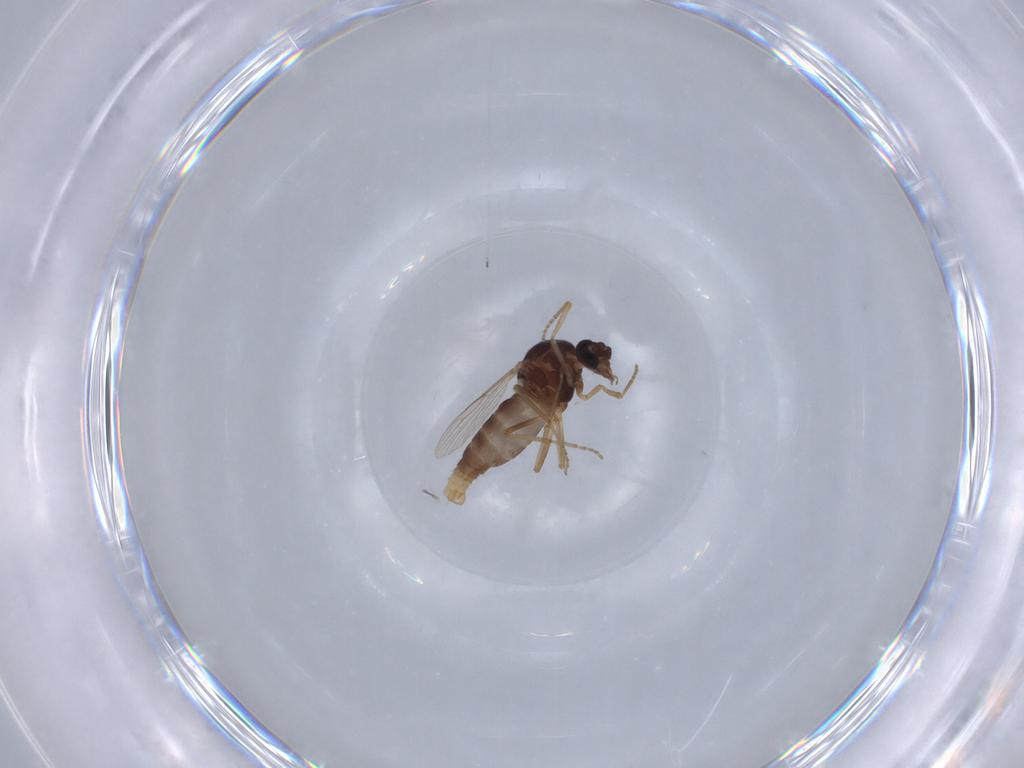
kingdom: Animalia
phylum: Arthropoda
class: Insecta
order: Diptera
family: Ceratopogonidae
